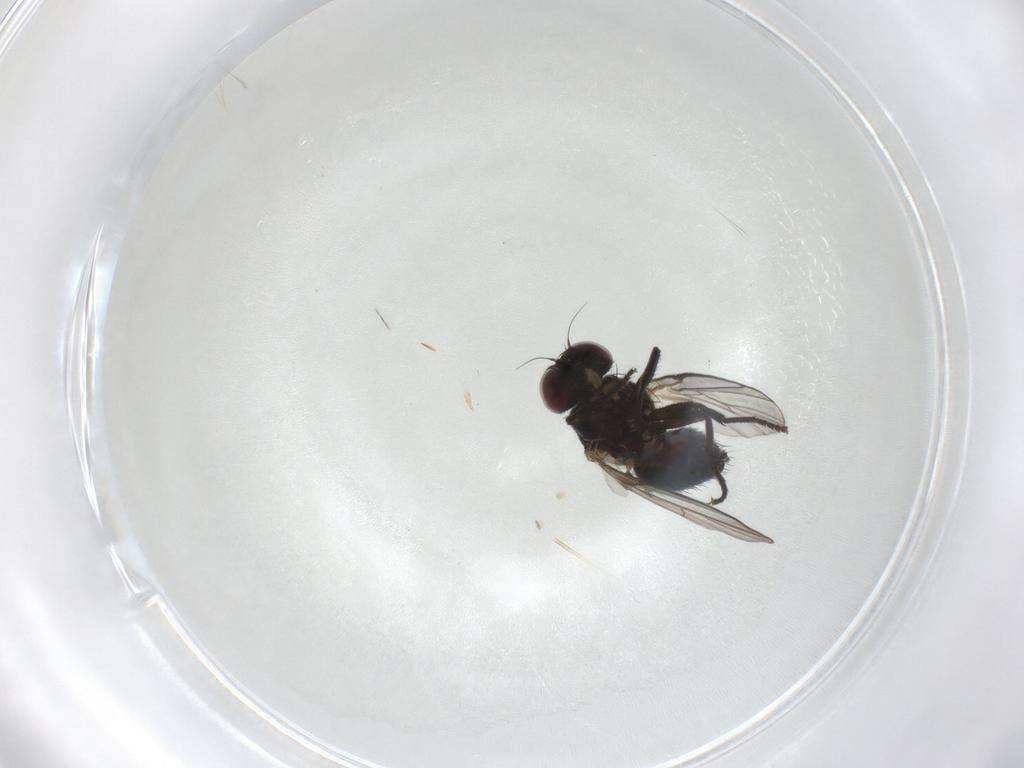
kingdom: Animalia
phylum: Arthropoda
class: Insecta
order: Diptera
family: Agromyzidae
